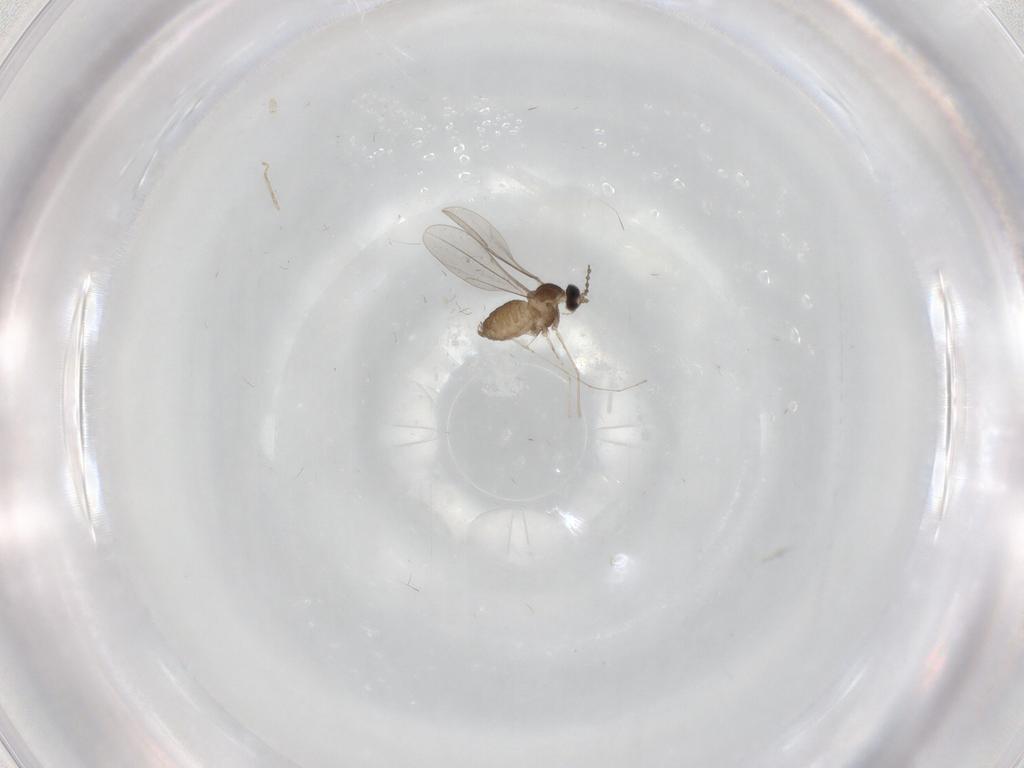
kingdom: Animalia
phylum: Arthropoda
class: Insecta
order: Diptera
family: Cecidomyiidae
